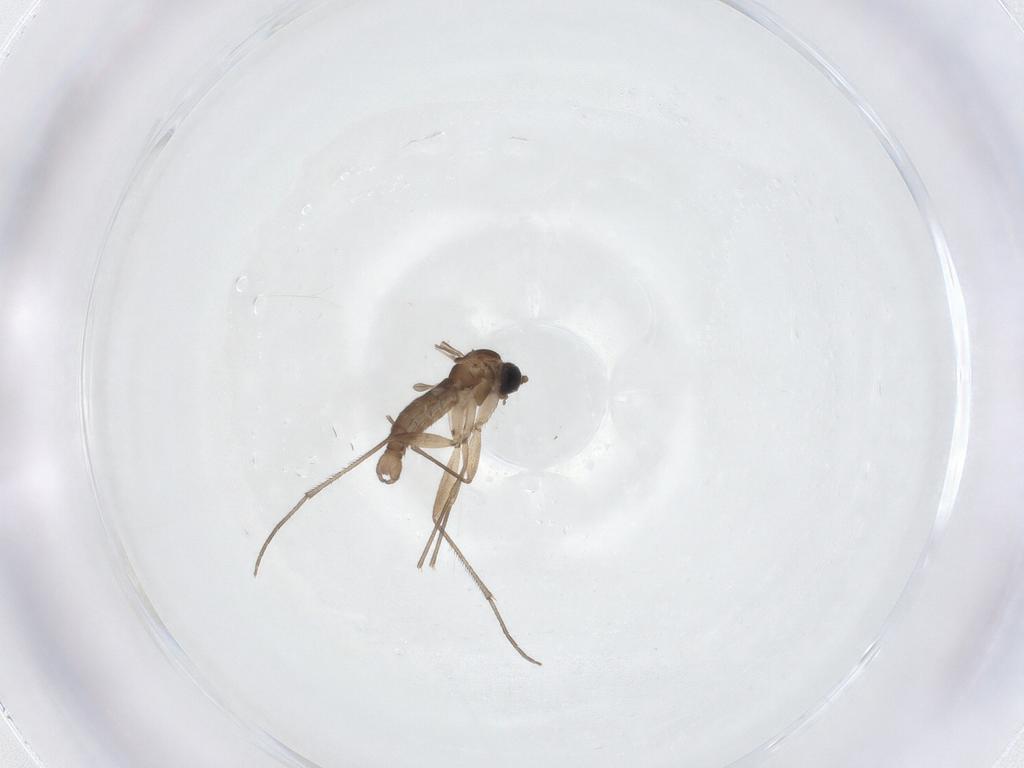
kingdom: Animalia
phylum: Arthropoda
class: Insecta
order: Diptera
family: Sciaridae
